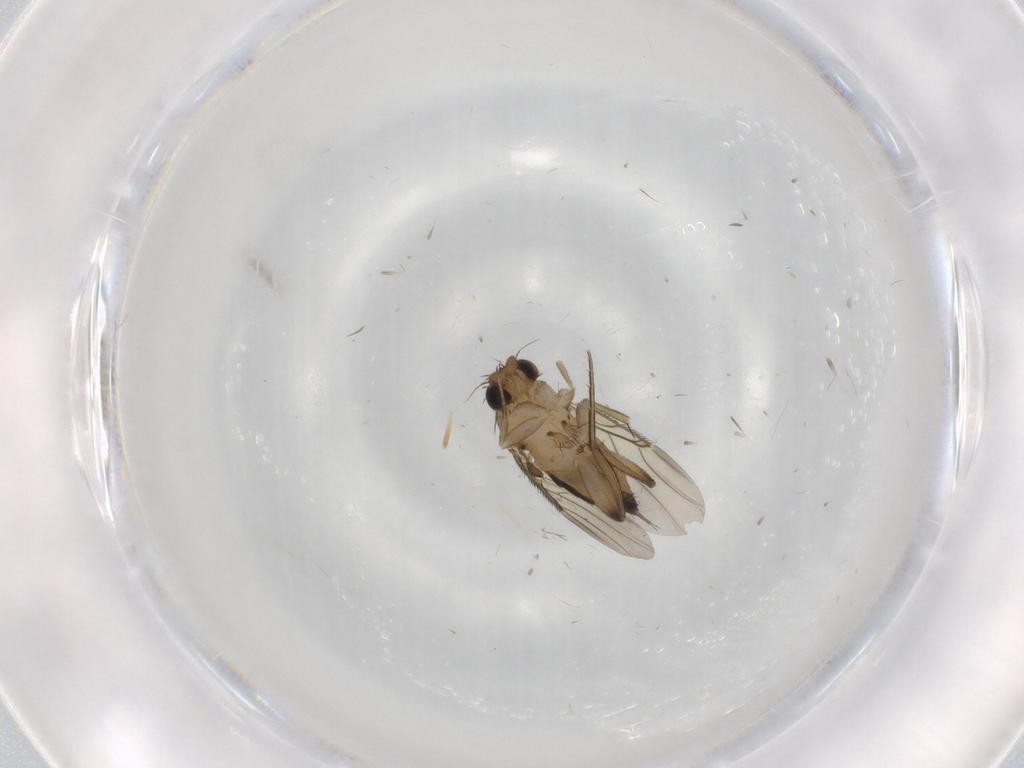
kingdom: Animalia
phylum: Arthropoda
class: Insecta
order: Diptera
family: Phoridae
